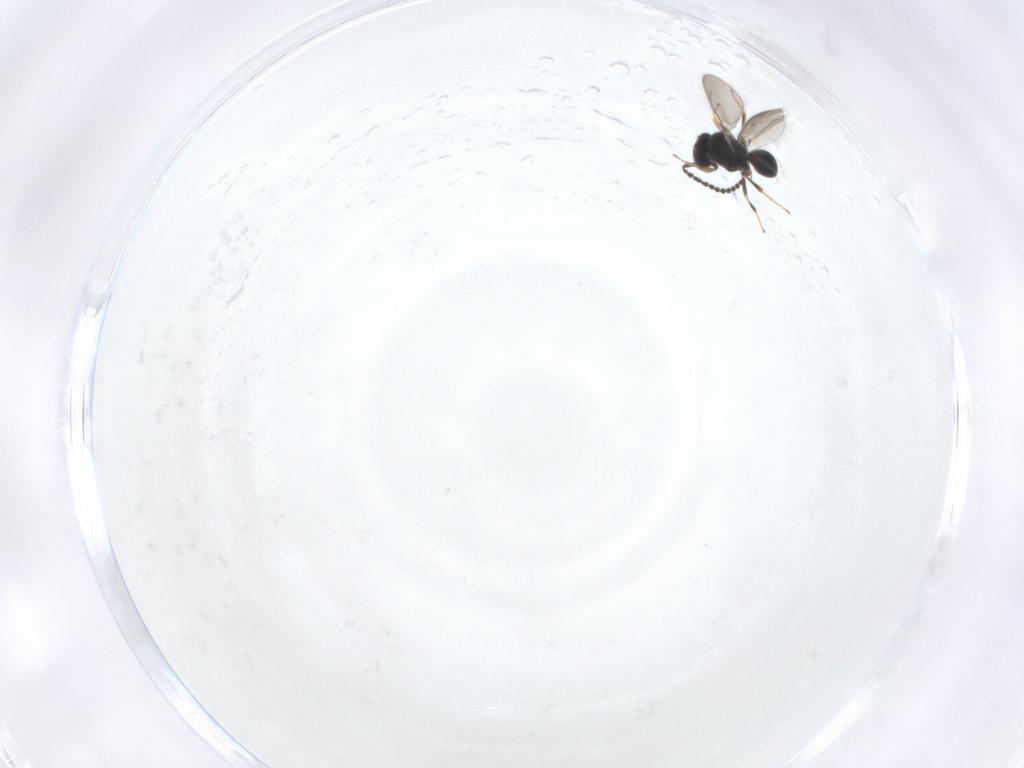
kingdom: Animalia
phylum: Arthropoda
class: Insecta
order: Hymenoptera
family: Scelionidae
